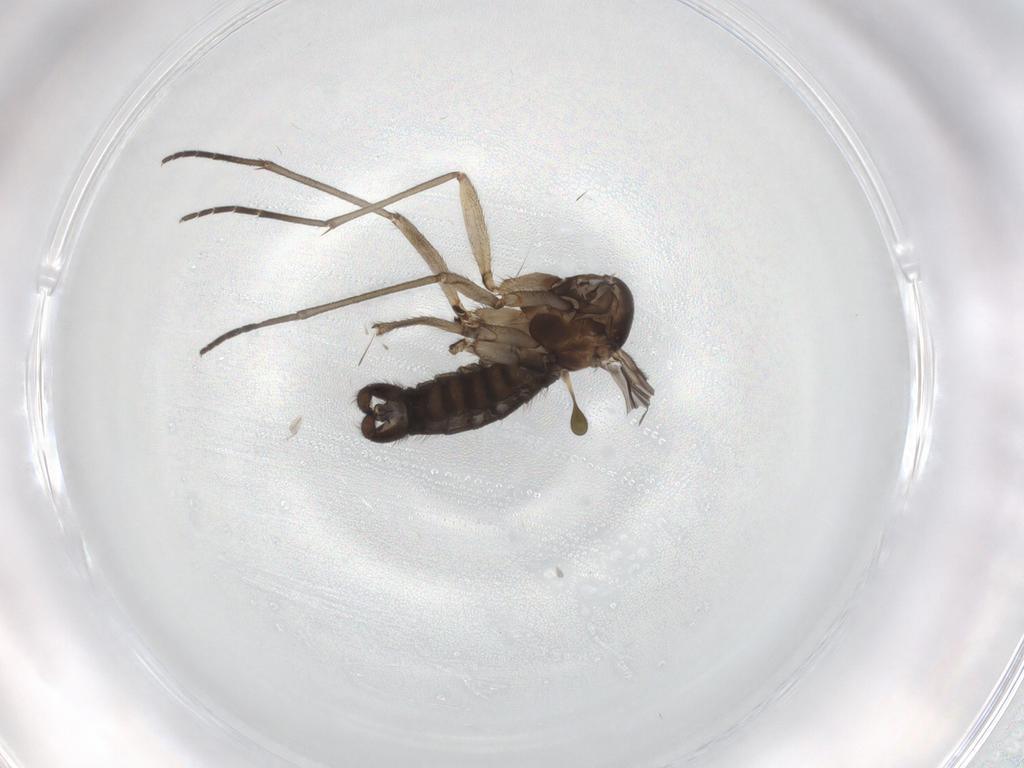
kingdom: Animalia
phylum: Arthropoda
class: Insecta
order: Diptera
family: Sciaridae
